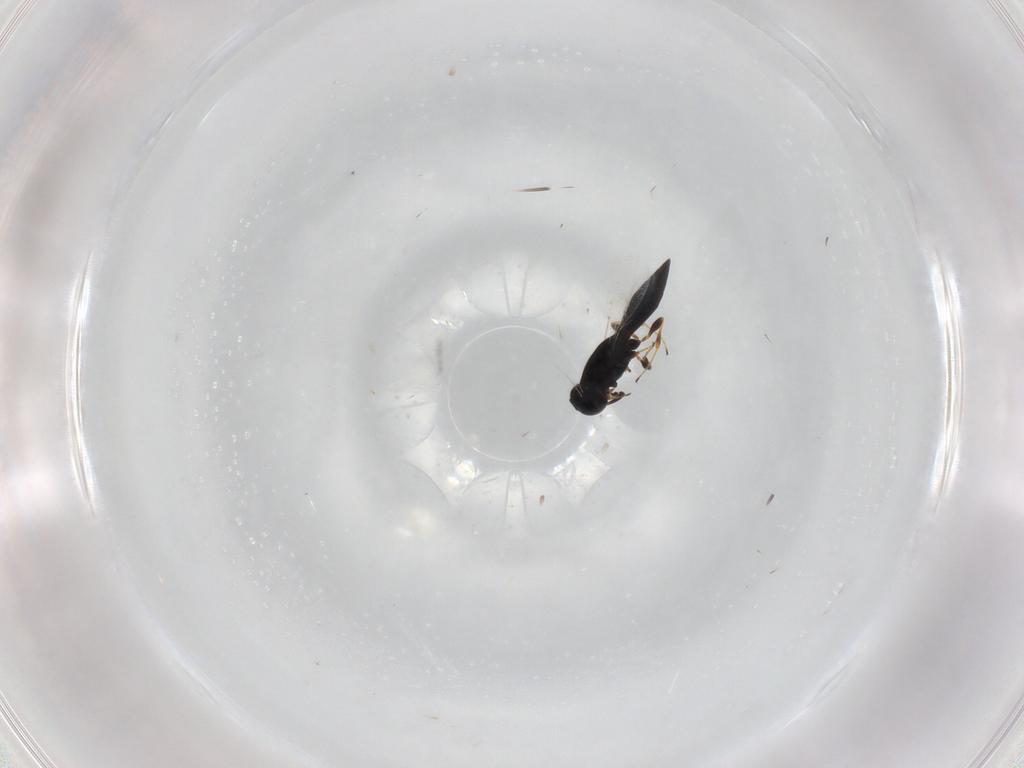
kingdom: Animalia
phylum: Arthropoda
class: Insecta
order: Hymenoptera
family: Platygastridae
